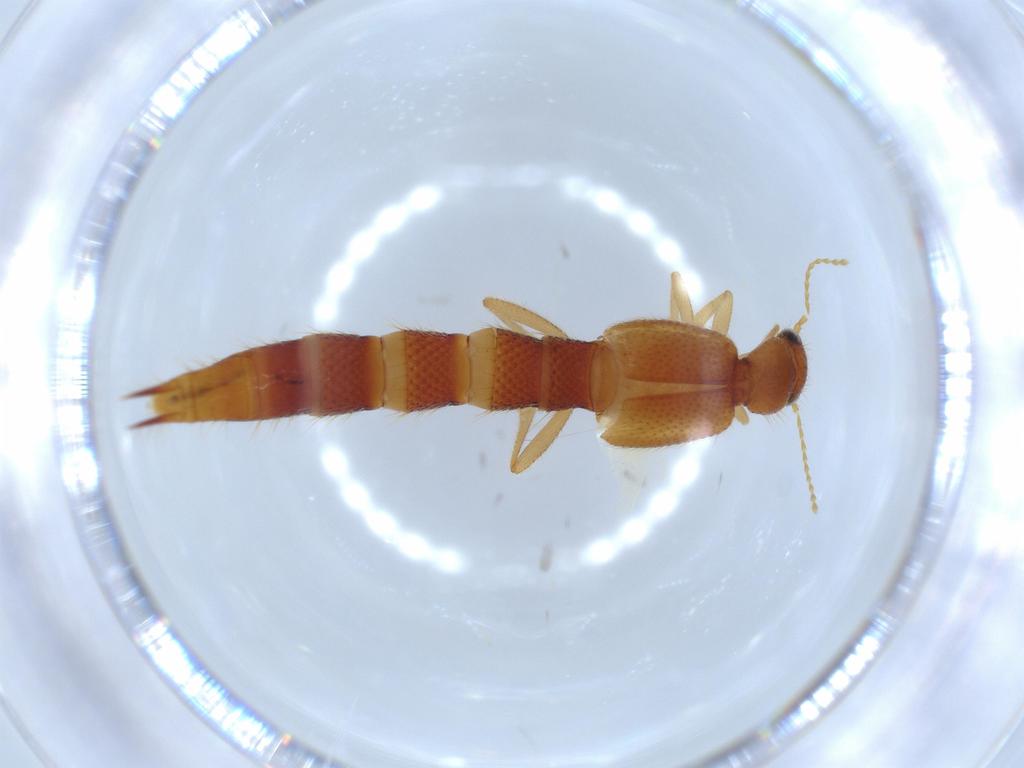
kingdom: Animalia
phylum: Arthropoda
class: Insecta
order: Coleoptera
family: Staphylinidae
